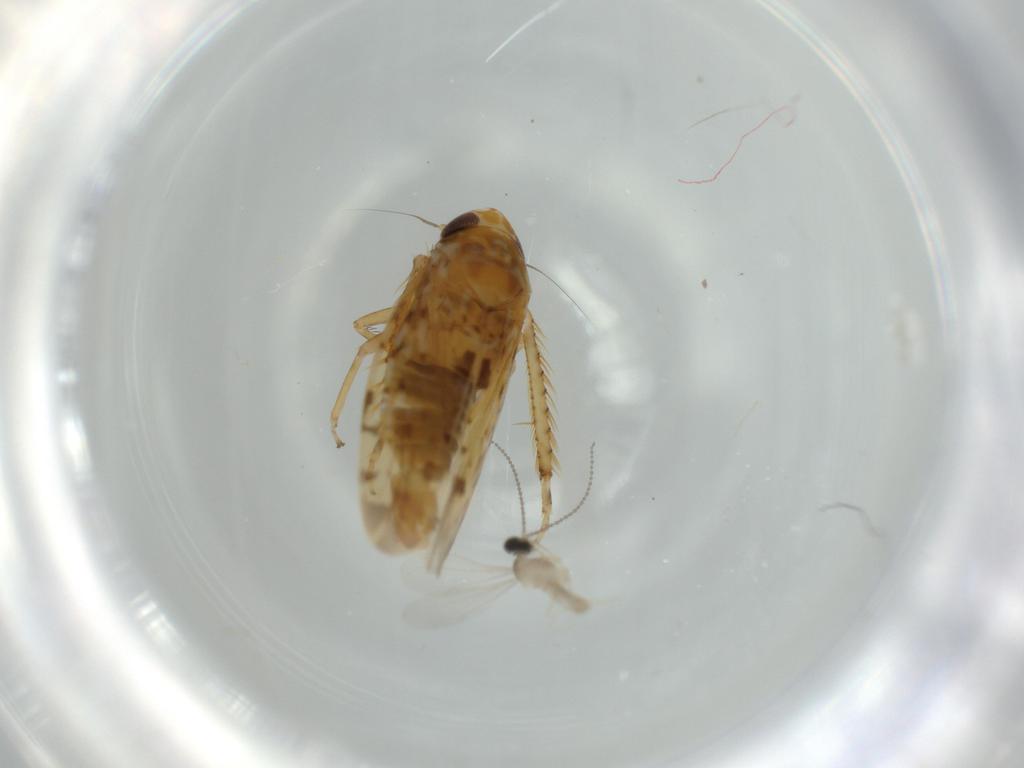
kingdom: Animalia
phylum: Arthropoda
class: Insecta
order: Diptera
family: Cecidomyiidae
